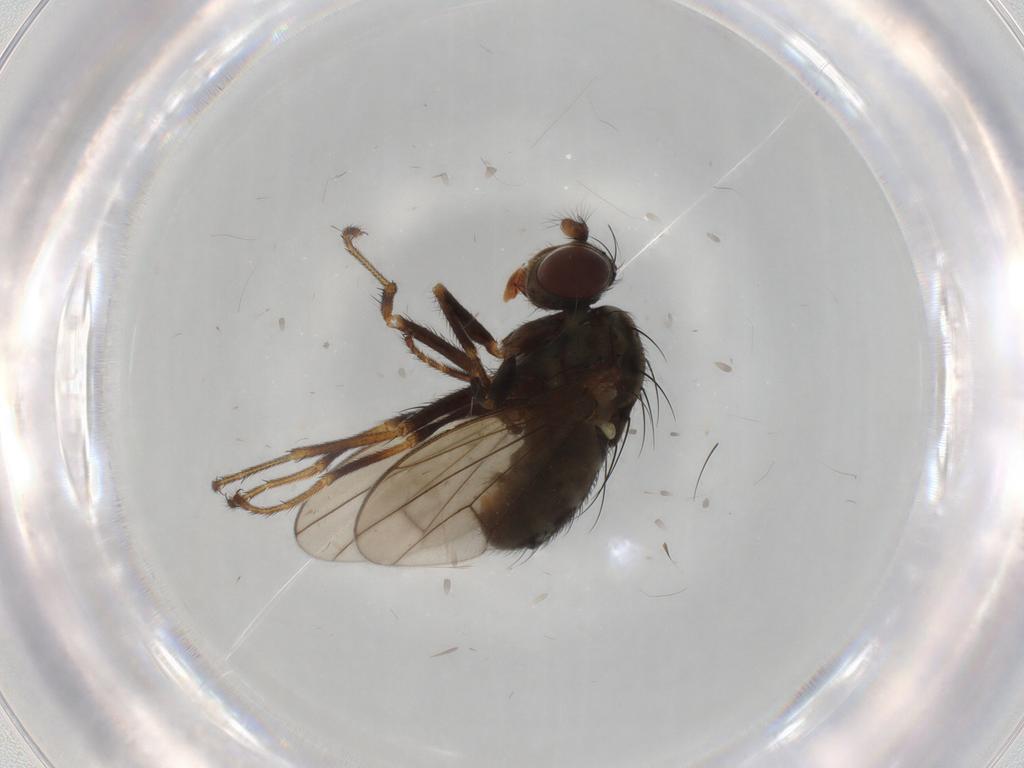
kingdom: Animalia
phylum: Arthropoda
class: Insecta
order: Diptera
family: Ephydridae
